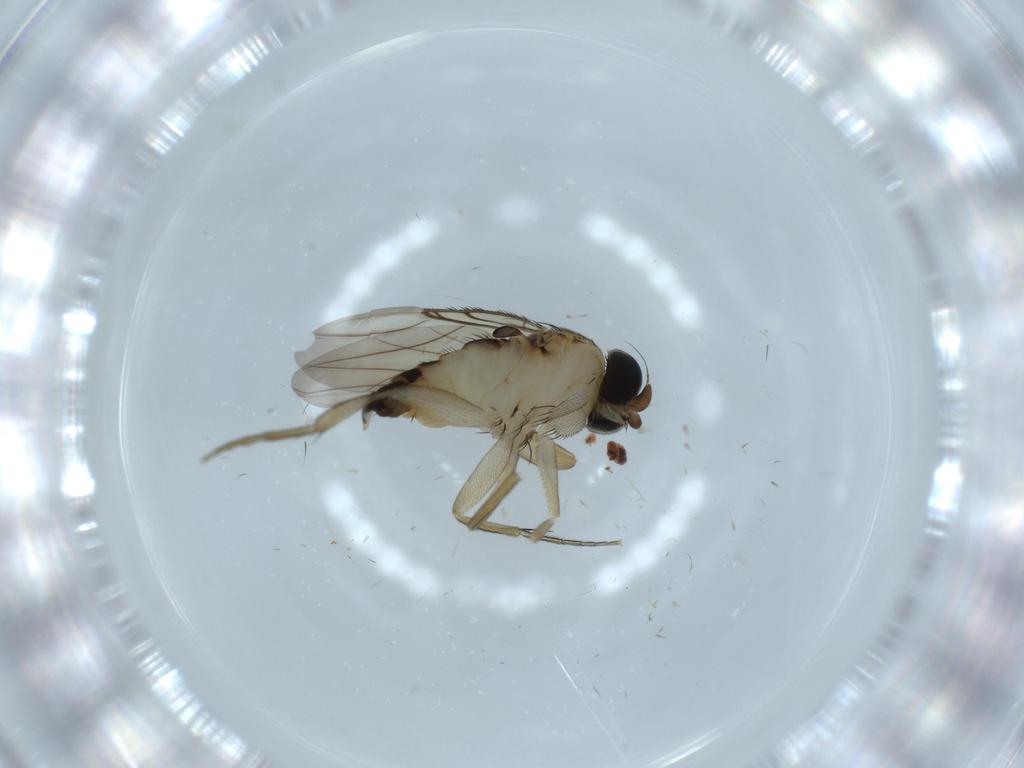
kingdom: Animalia
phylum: Arthropoda
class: Insecta
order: Diptera
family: Phoridae
